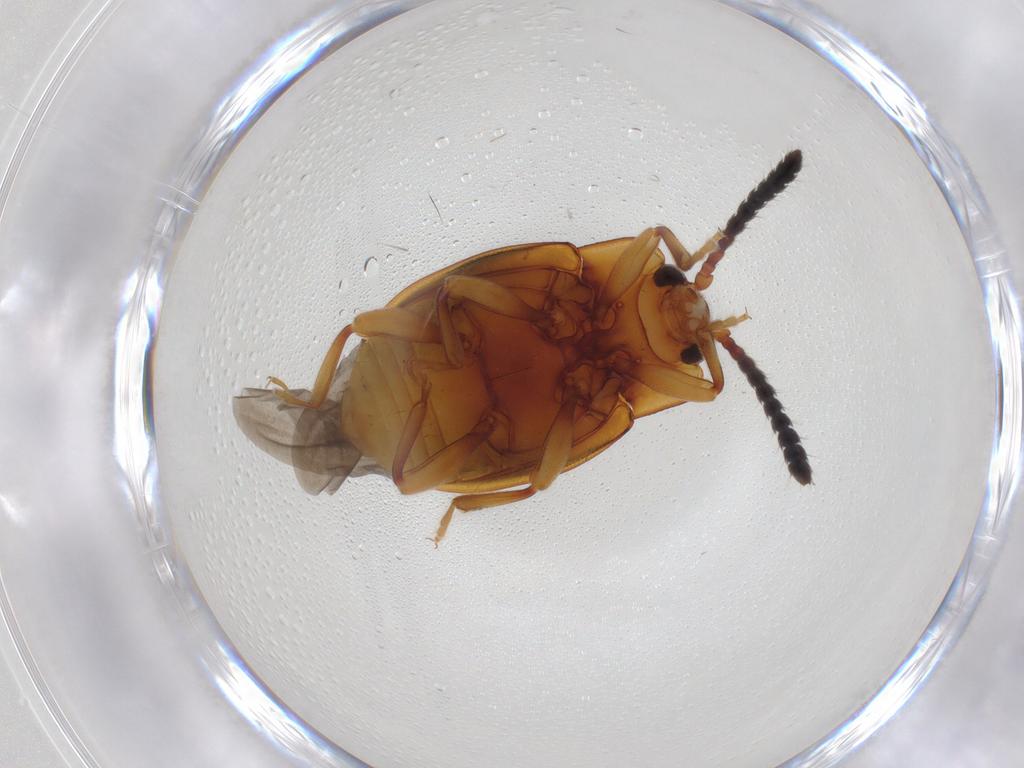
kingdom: Animalia
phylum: Arthropoda
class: Insecta
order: Coleoptera
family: Endomychidae
